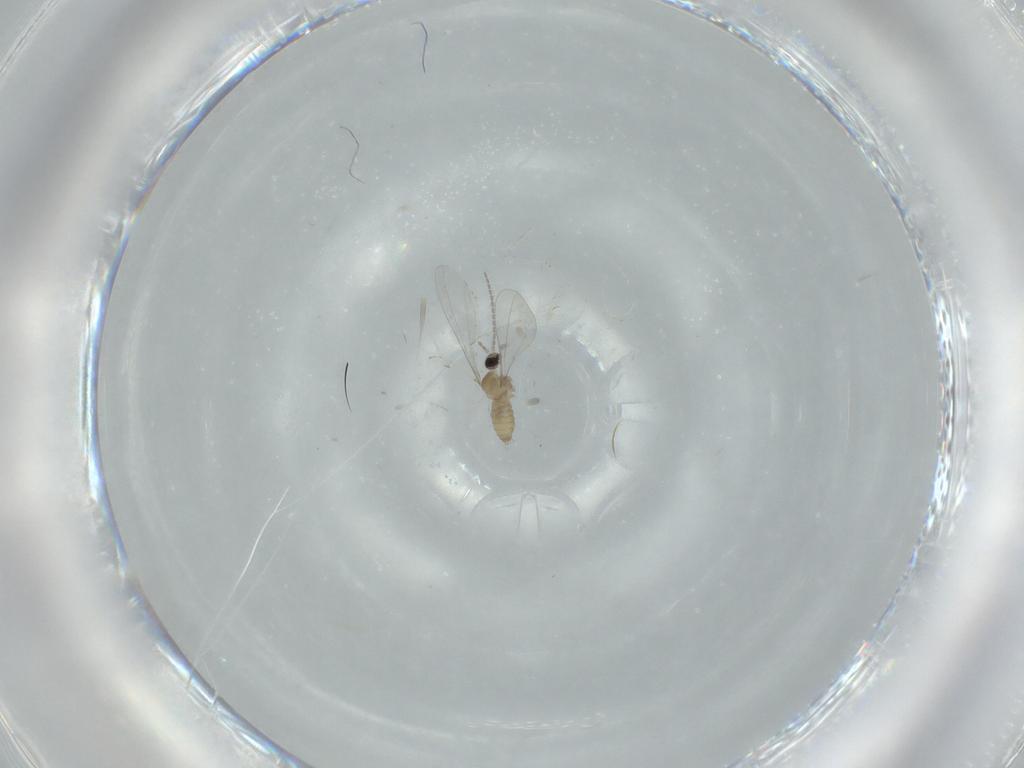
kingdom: Animalia
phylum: Arthropoda
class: Insecta
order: Diptera
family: Cecidomyiidae
